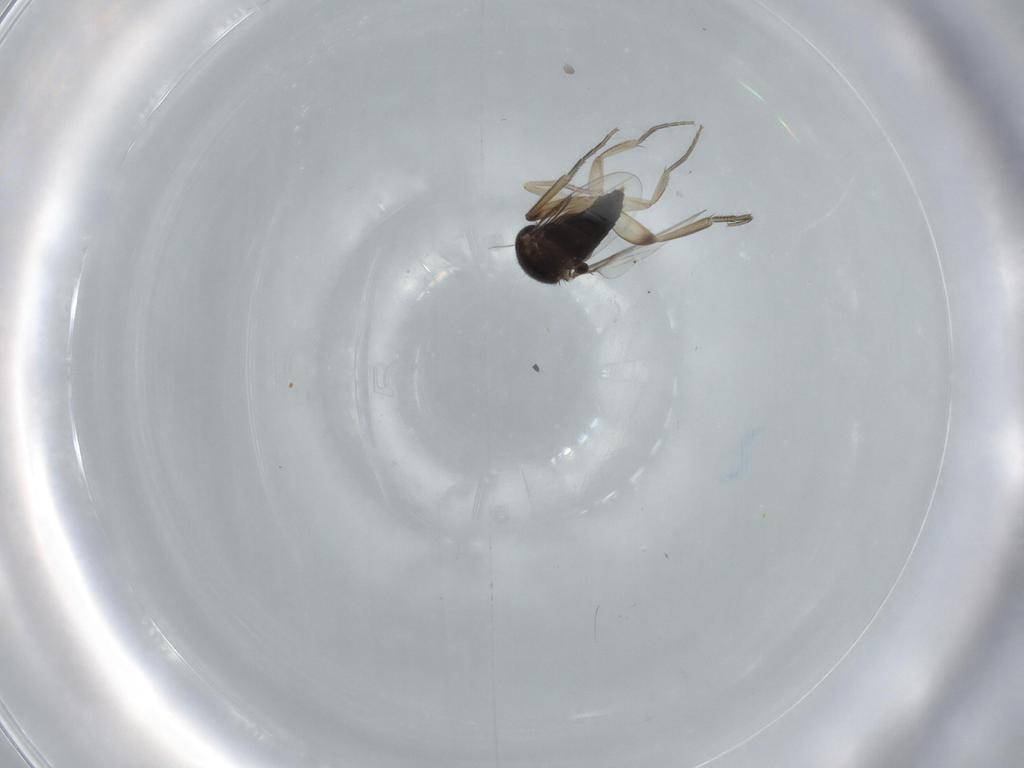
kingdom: Animalia
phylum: Arthropoda
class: Insecta
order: Diptera
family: Phoridae
